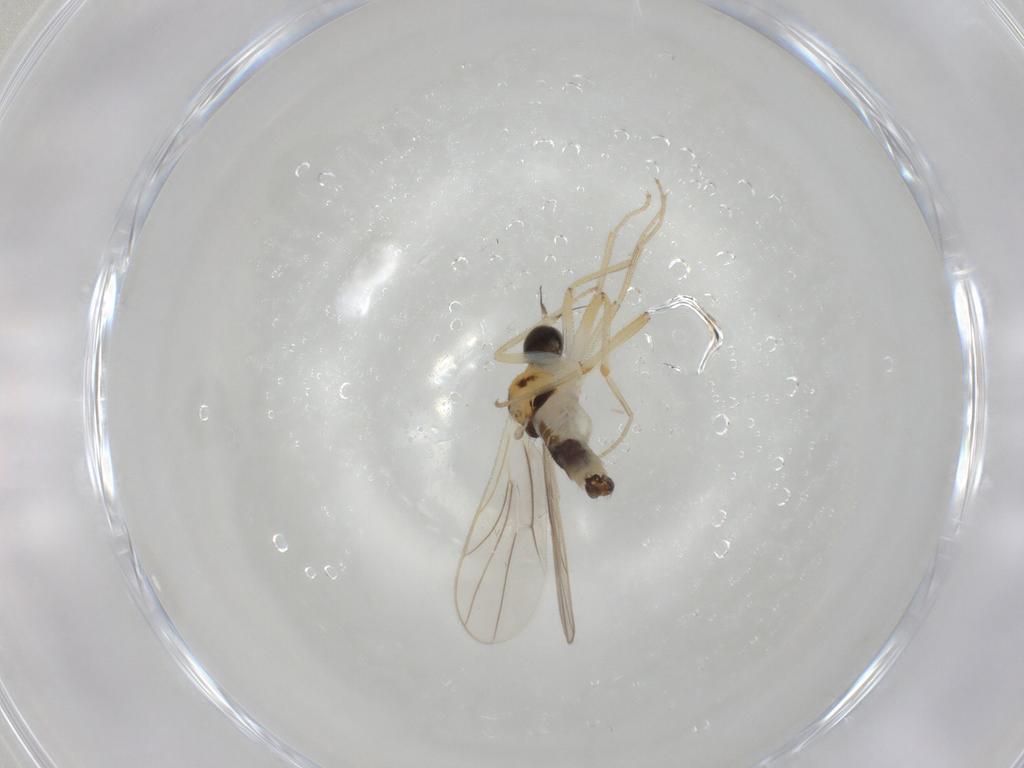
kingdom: Animalia
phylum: Arthropoda
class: Insecta
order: Diptera
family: Hybotidae
